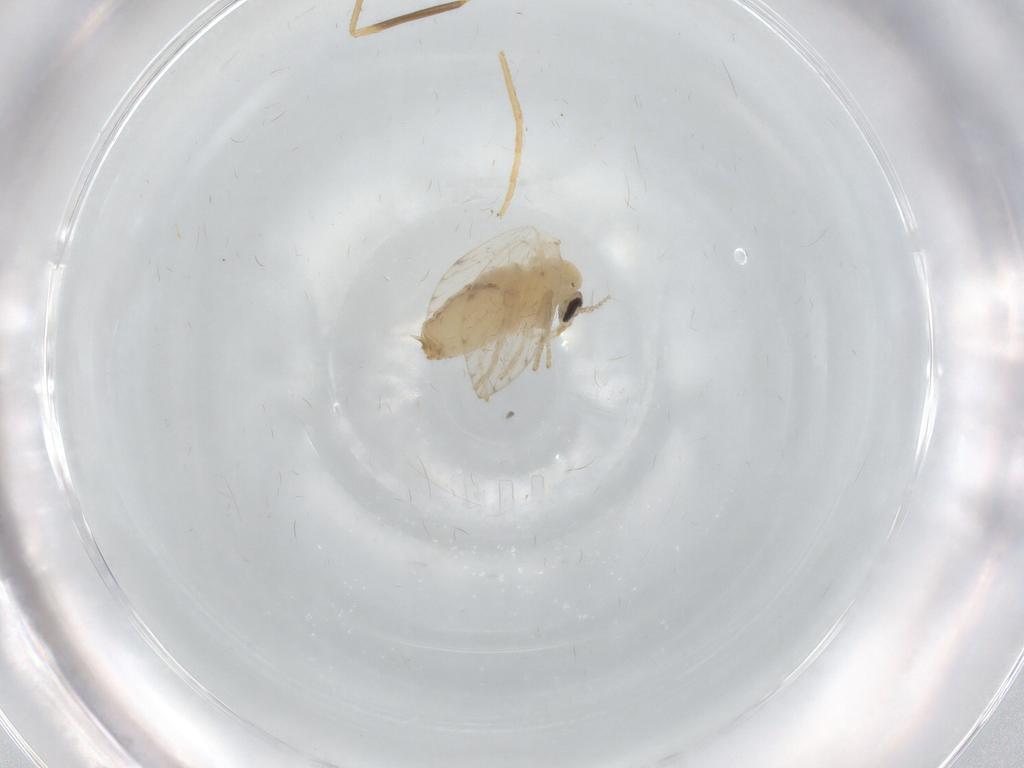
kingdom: Animalia
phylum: Arthropoda
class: Insecta
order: Diptera
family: Psychodidae
